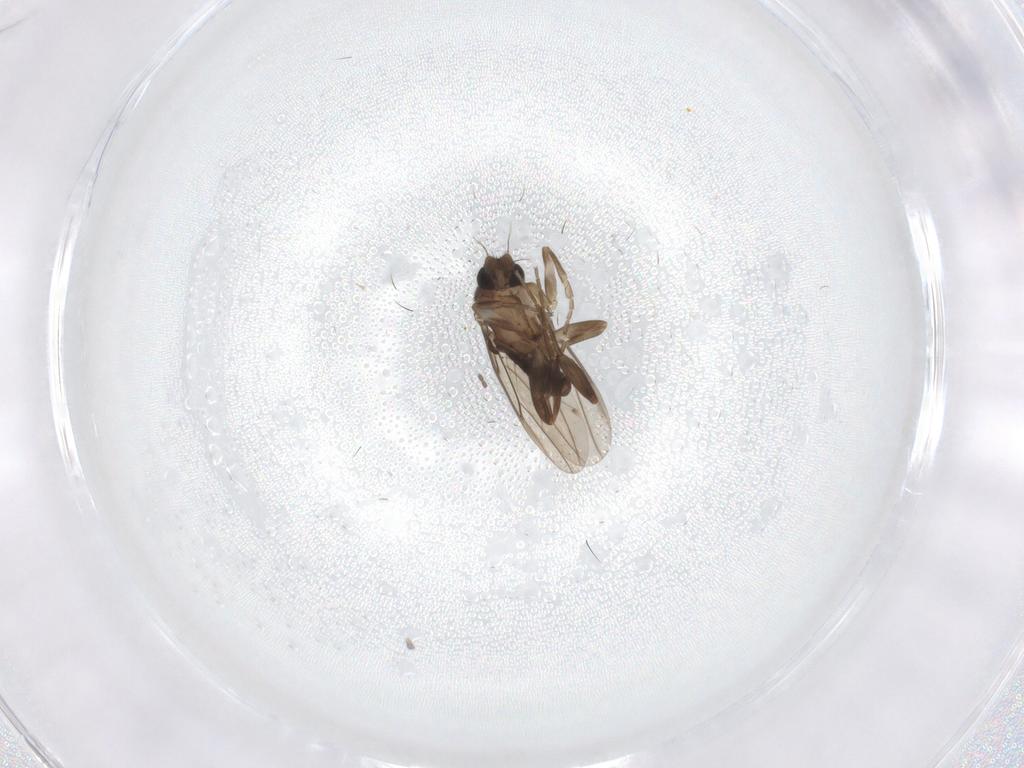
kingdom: Animalia
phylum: Arthropoda
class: Insecta
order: Diptera
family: Phoridae
